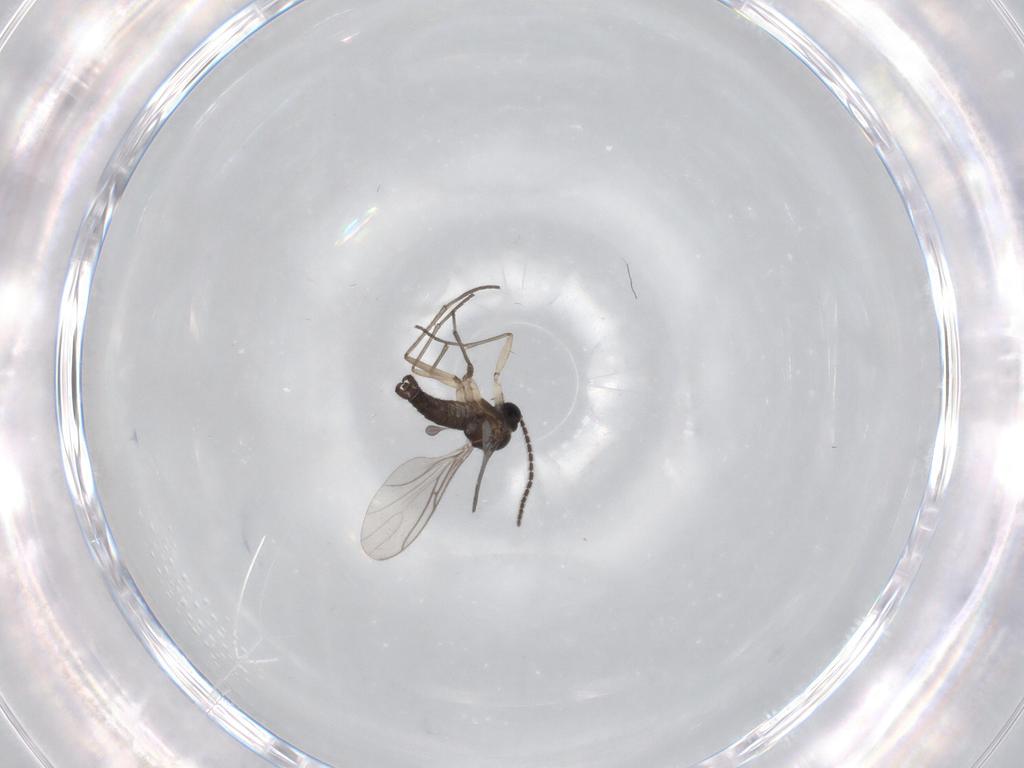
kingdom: Animalia
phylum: Arthropoda
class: Insecta
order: Diptera
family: Sciaridae
